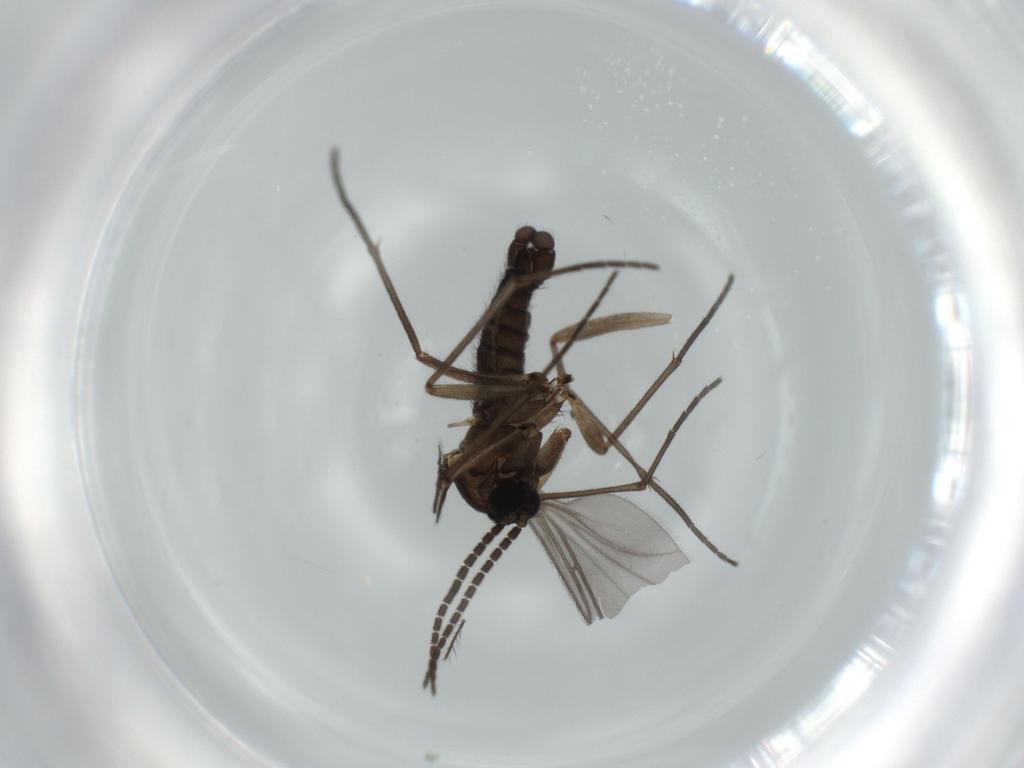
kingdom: Animalia
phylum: Arthropoda
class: Insecta
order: Diptera
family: Sciaridae
